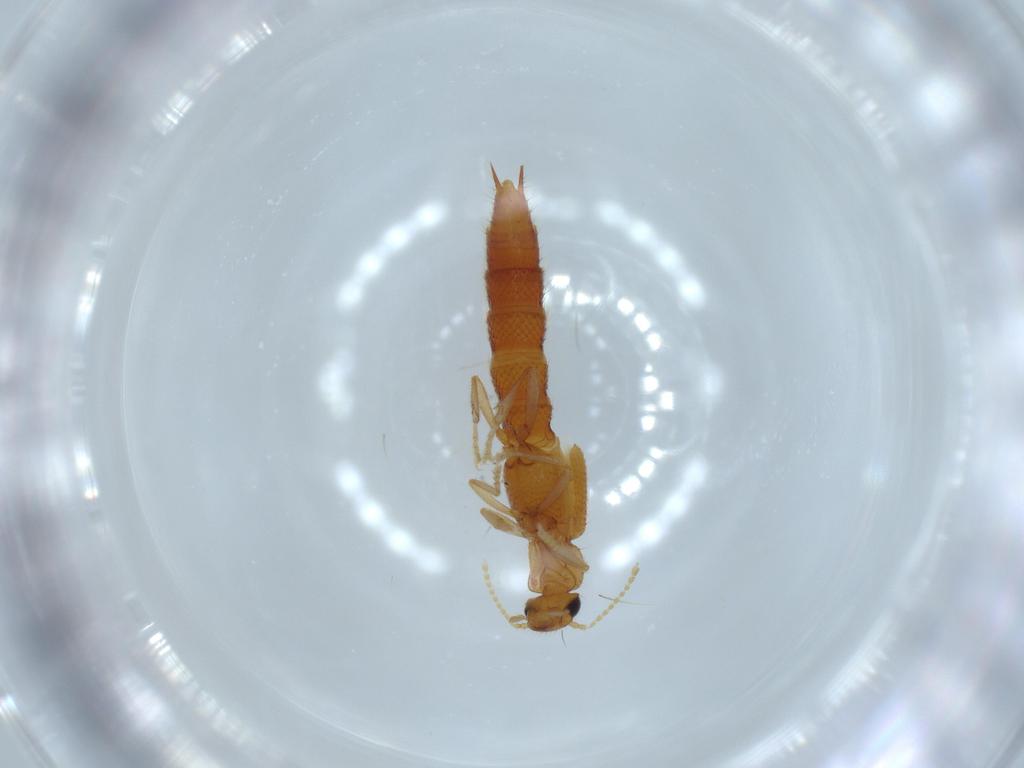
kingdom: Animalia
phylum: Arthropoda
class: Insecta
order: Coleoptera
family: Staphylinidae
